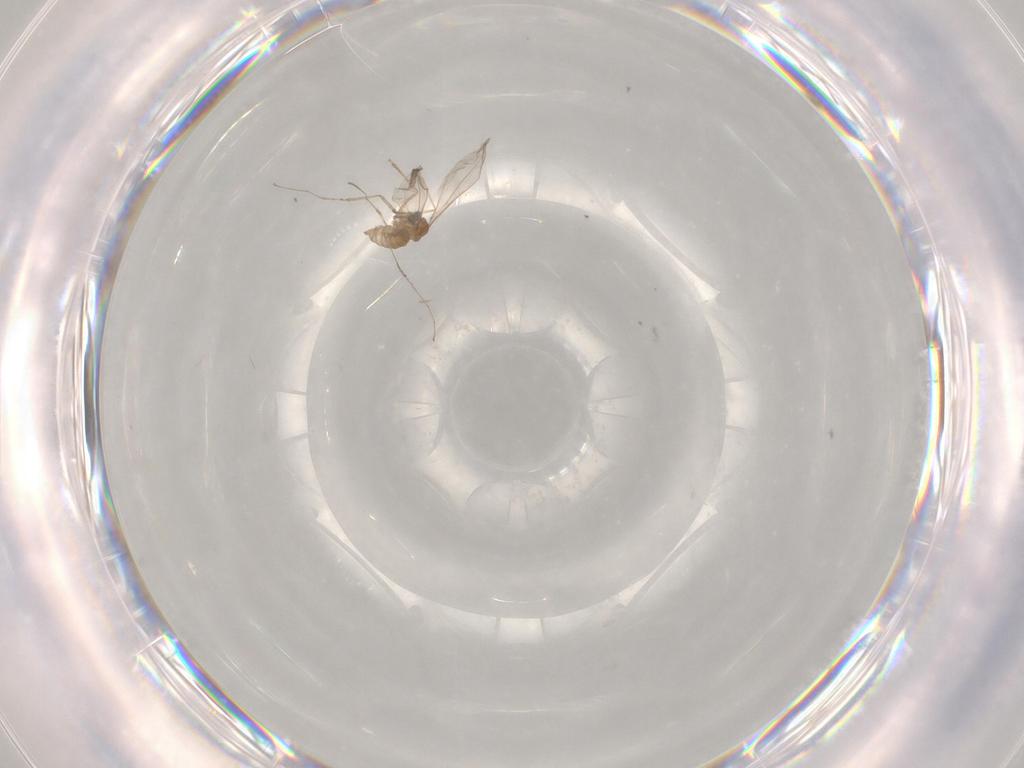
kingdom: Animalia
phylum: Arthropoda
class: Insecta
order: Diptera
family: Cecidomyiidae
